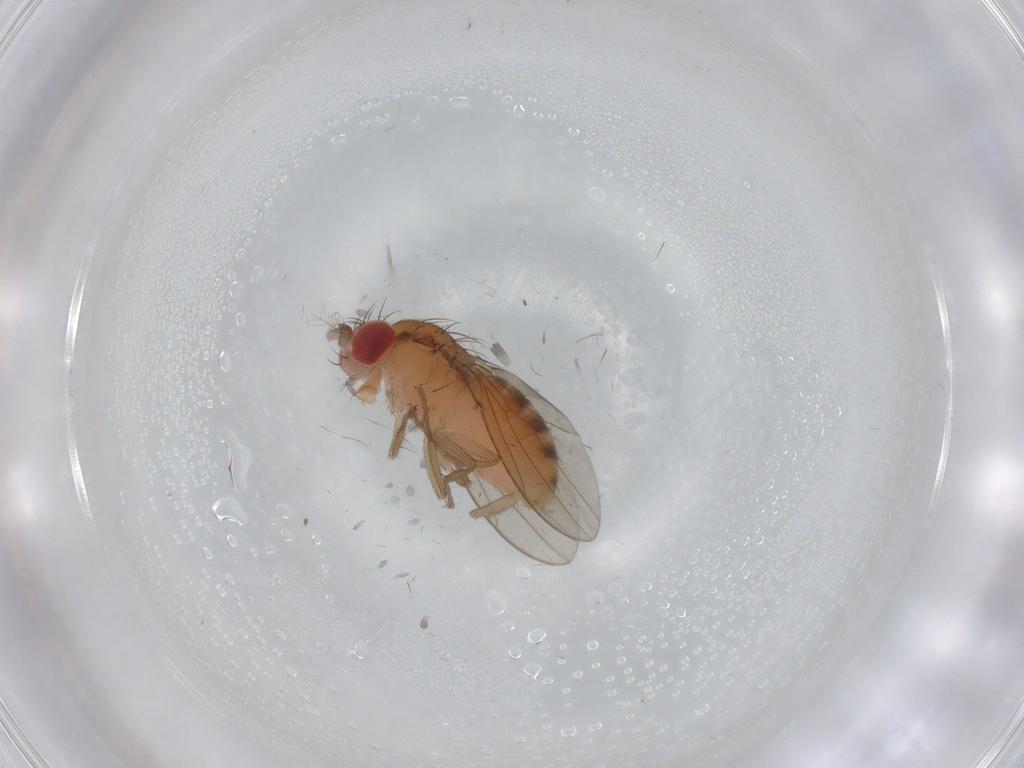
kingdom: Animalia
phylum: Arthropoda
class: Insecta
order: Diptera
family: Drosophilidae
